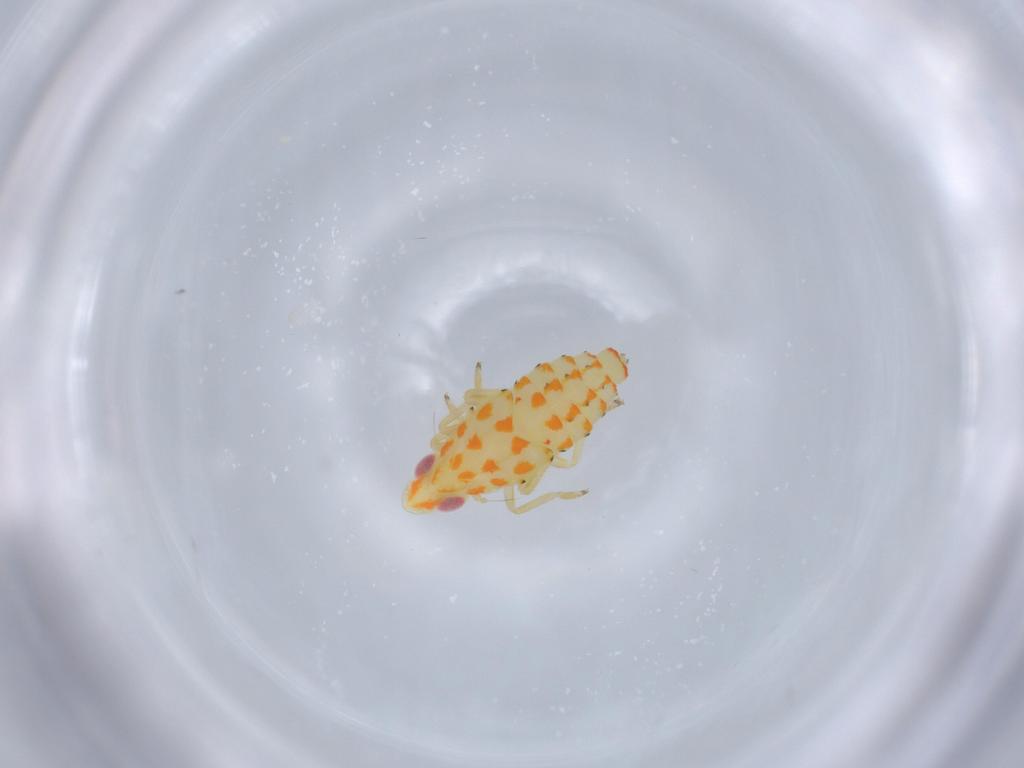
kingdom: Animalia
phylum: Arthropoda
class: Insecta
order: Hemiptera
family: Tropiduchidae
